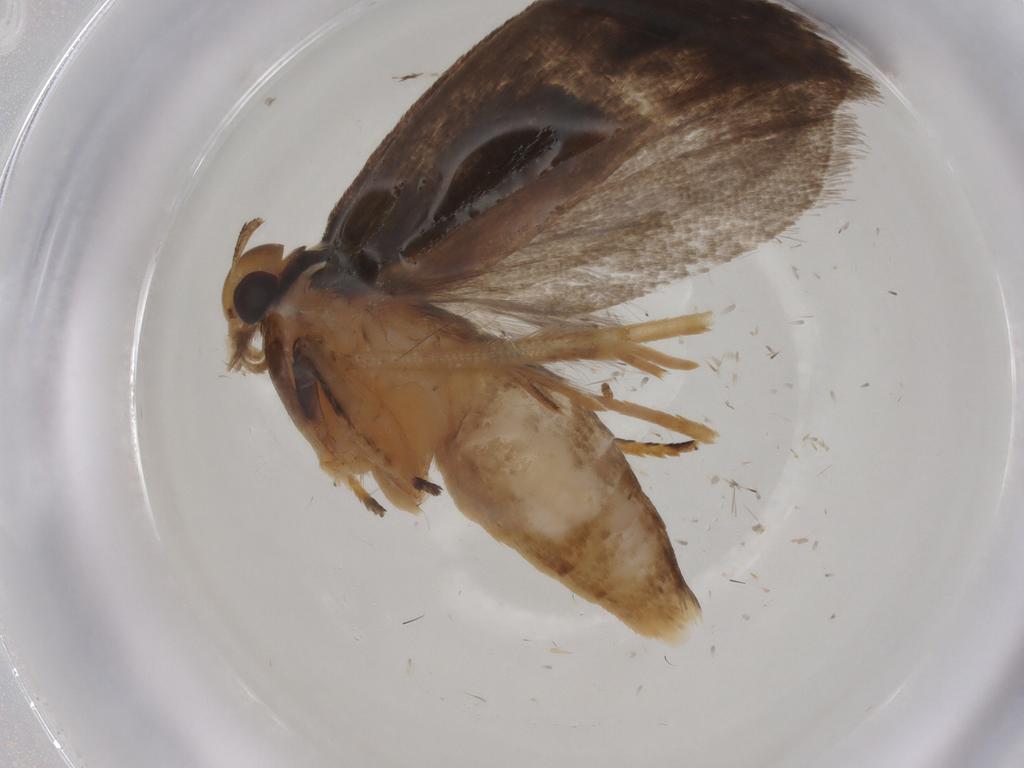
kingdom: Animalia
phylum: Arthropoda
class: Insecta
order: Lepidoptera
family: Gelechiidae
